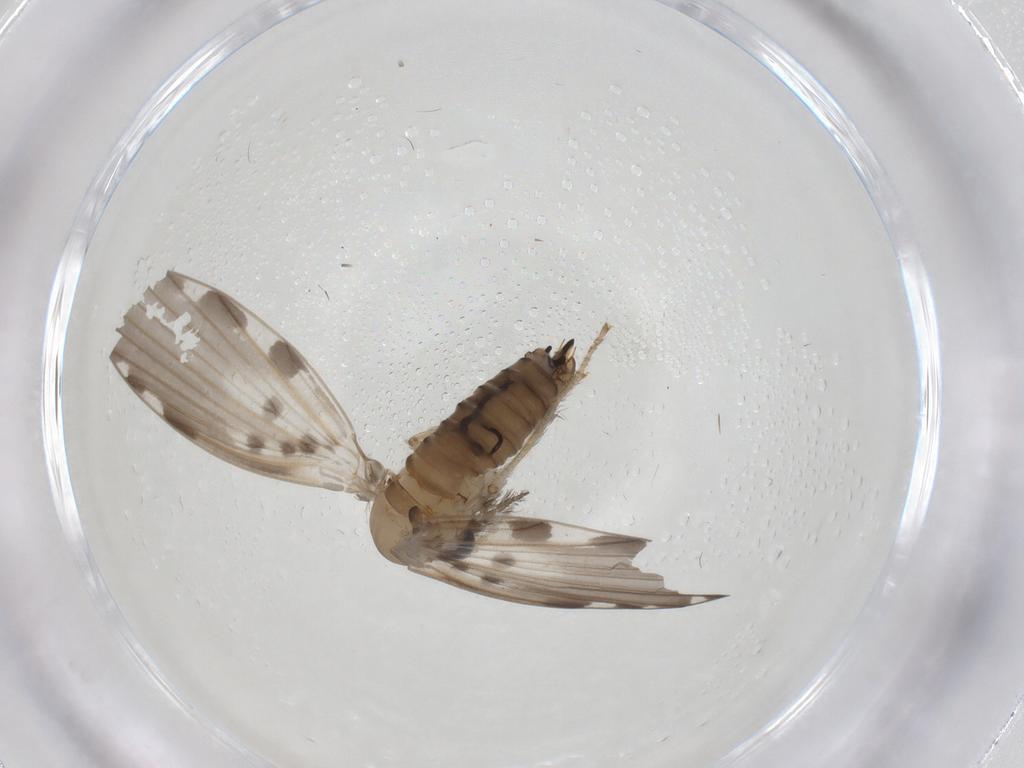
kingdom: Animalia
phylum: Arthropoda
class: Insecta
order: Diptera
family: Psychodidae
